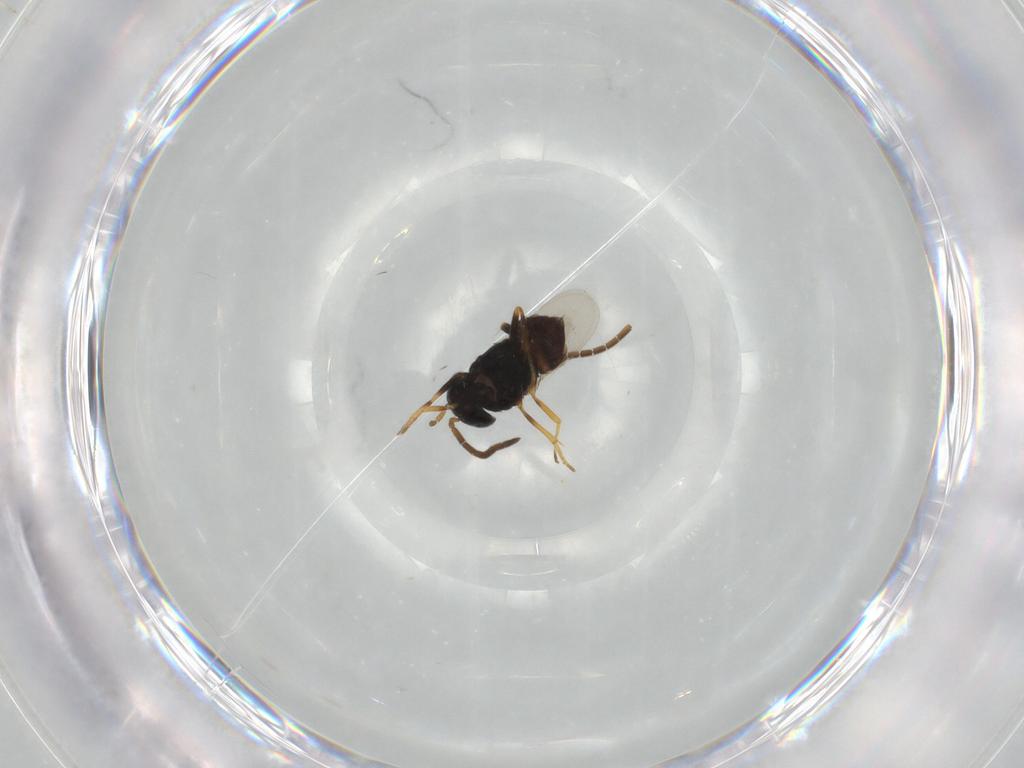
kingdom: Animalia
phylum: Arthropoda
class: Insecta
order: Hymenoptera
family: Encyrtidae
